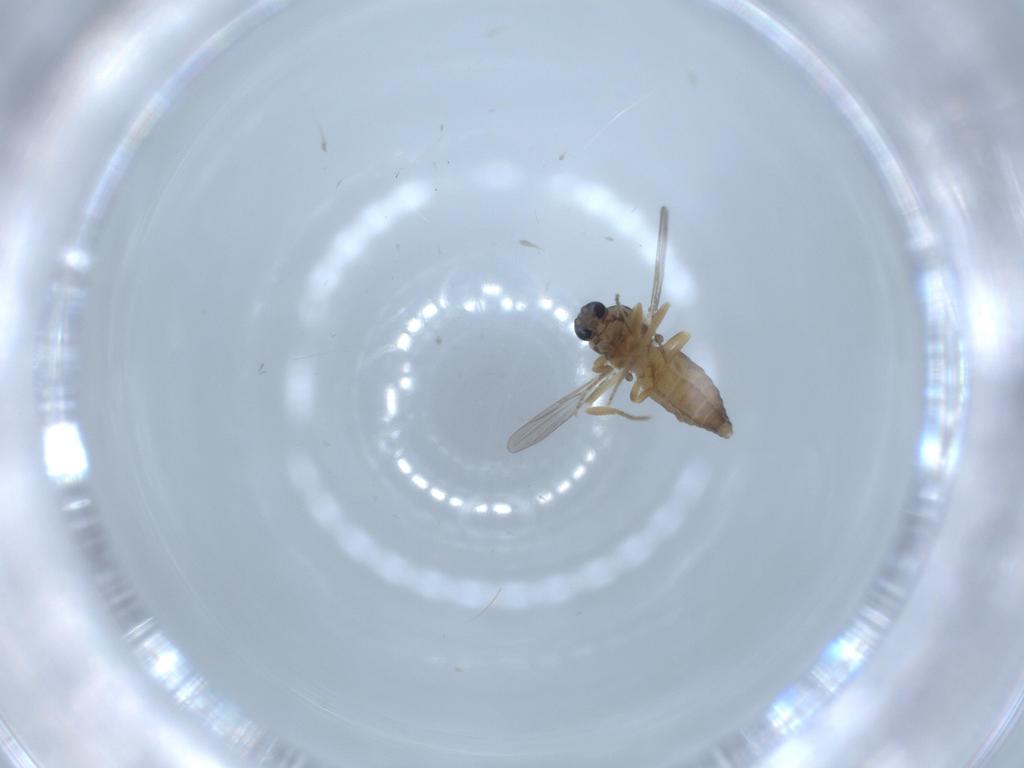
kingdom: Animalia
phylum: Arthropoda
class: Insecta
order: Diptera
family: Ceratopogonidae
